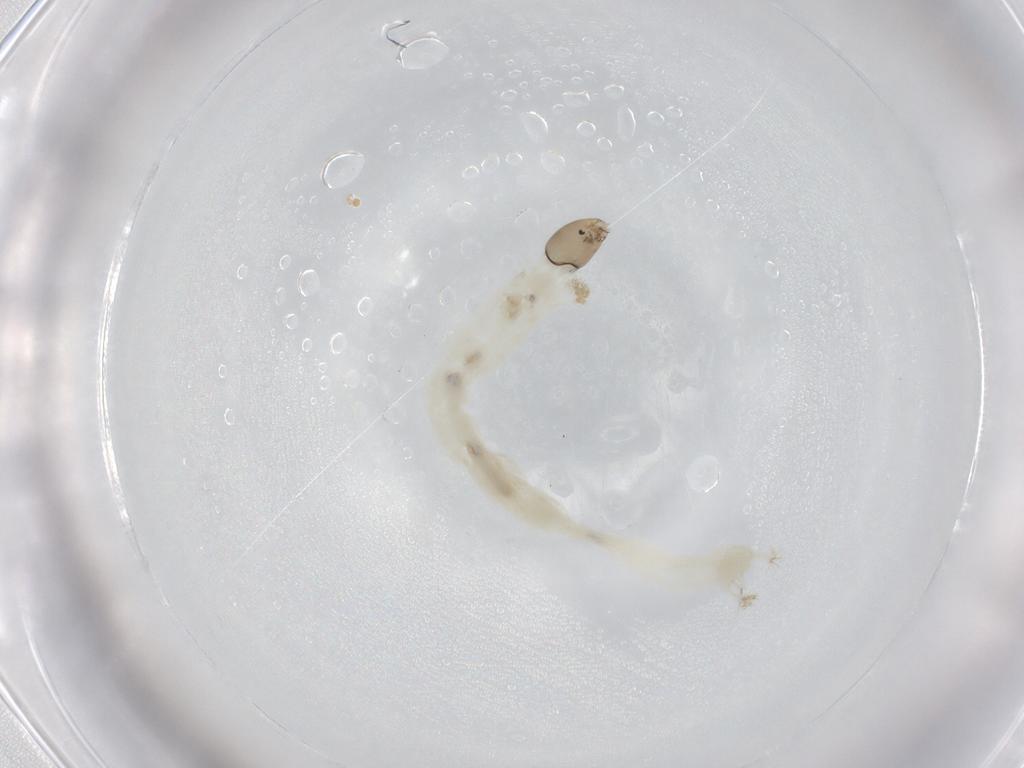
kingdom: Animalia
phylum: Arthropoda
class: Insecta
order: Diptera
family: Chironomidae
